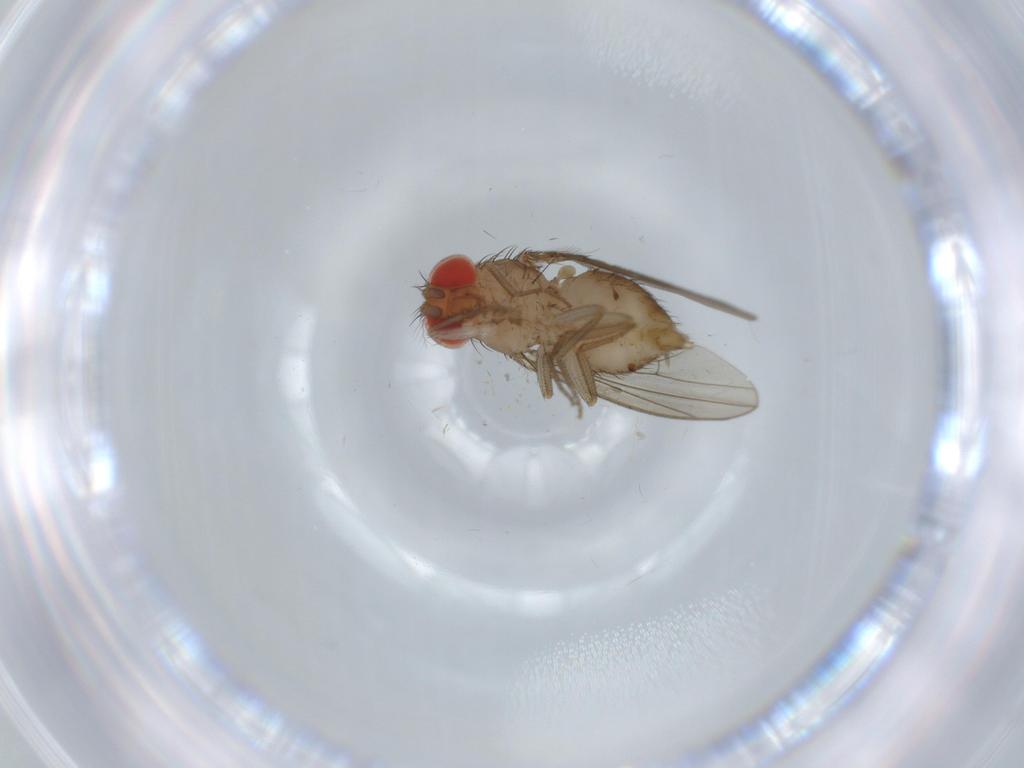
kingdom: Animalia
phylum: Arthropoda
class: Insecta
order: Diptera
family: Drosophilidae
